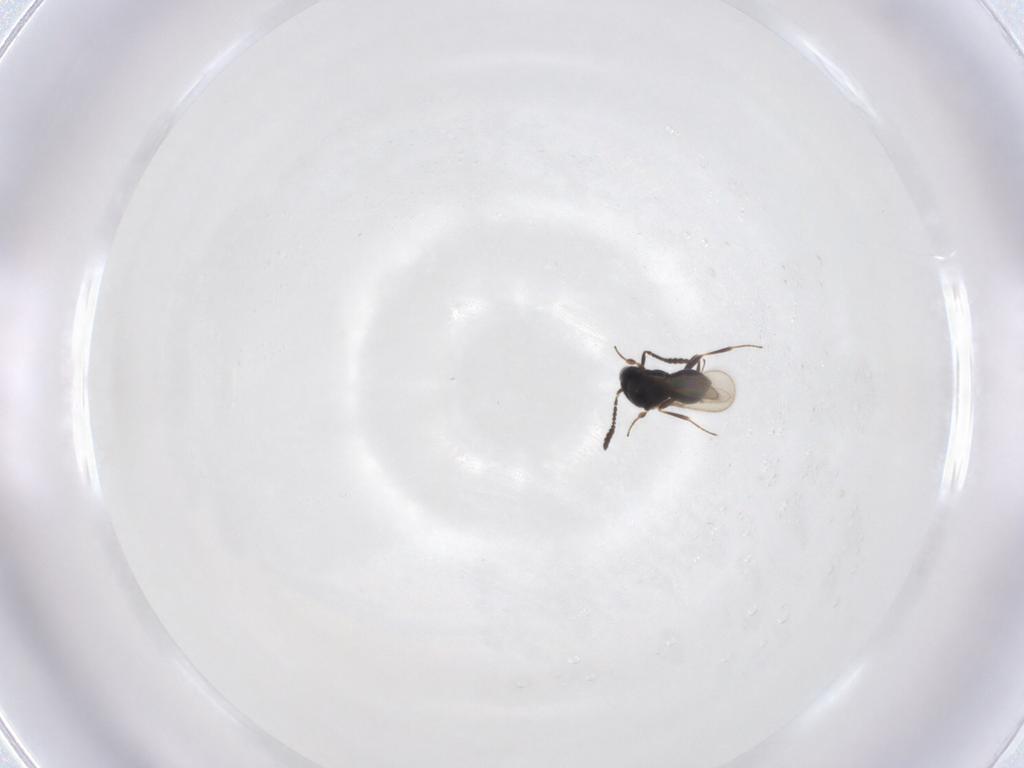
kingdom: Animalia
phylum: Arthropoda
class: Insecta
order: Hymenoptera
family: Scelionidae
